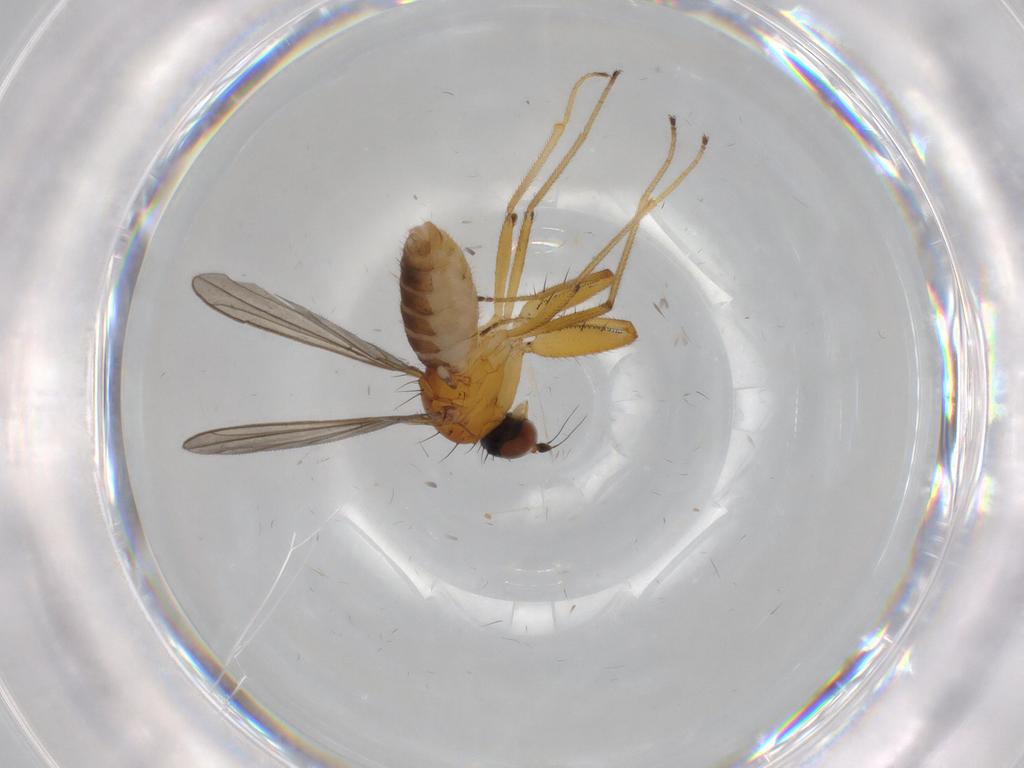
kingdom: Animalia
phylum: Arthropoda
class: Insecta
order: Diptera
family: Empididae
